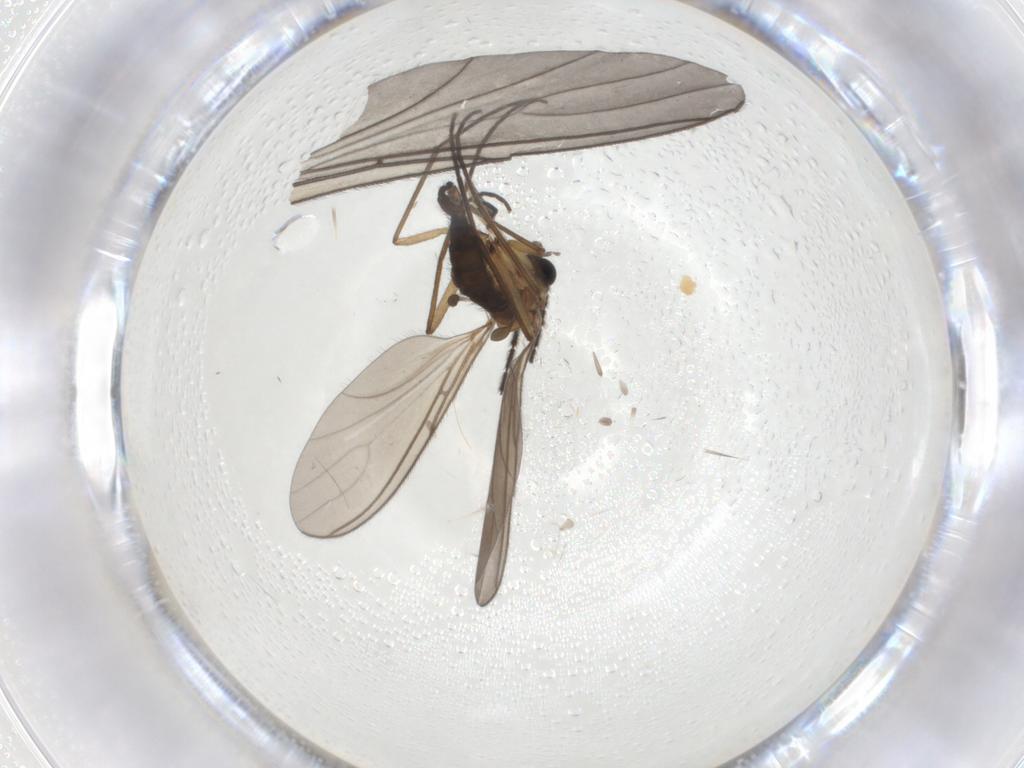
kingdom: Animalia
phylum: Arthropoda
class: Insecta
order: Diptera
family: Sciaridae
